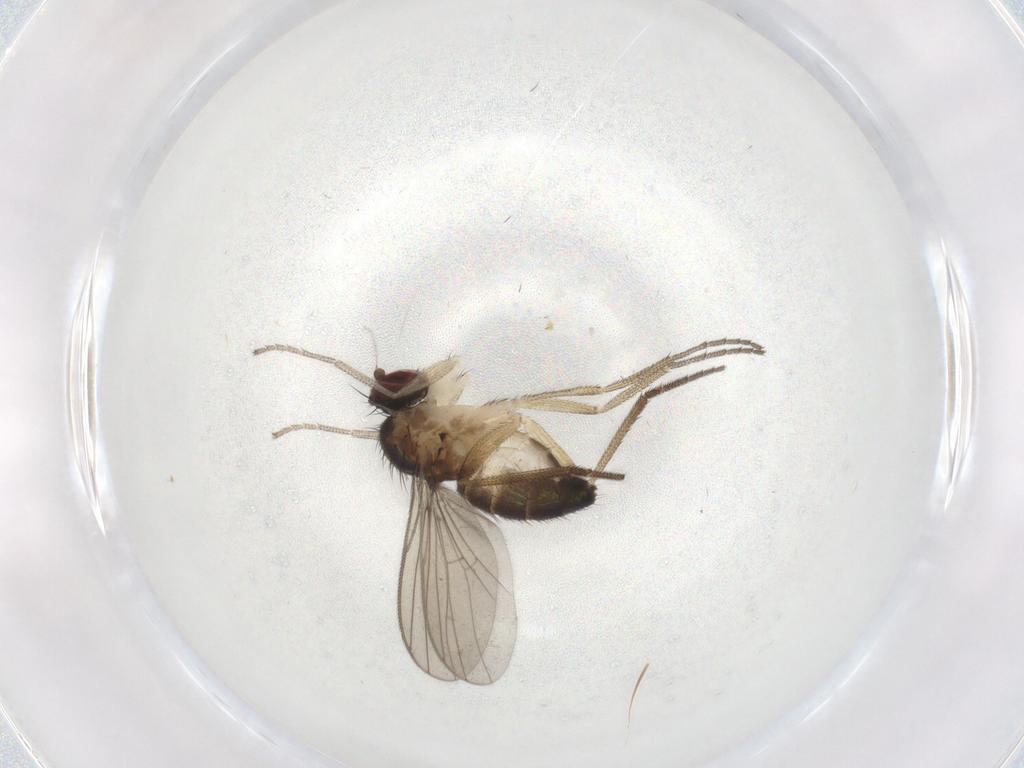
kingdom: Animalia
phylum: Arthropoda
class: Insecta
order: Diptera
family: Dolichopodidae
